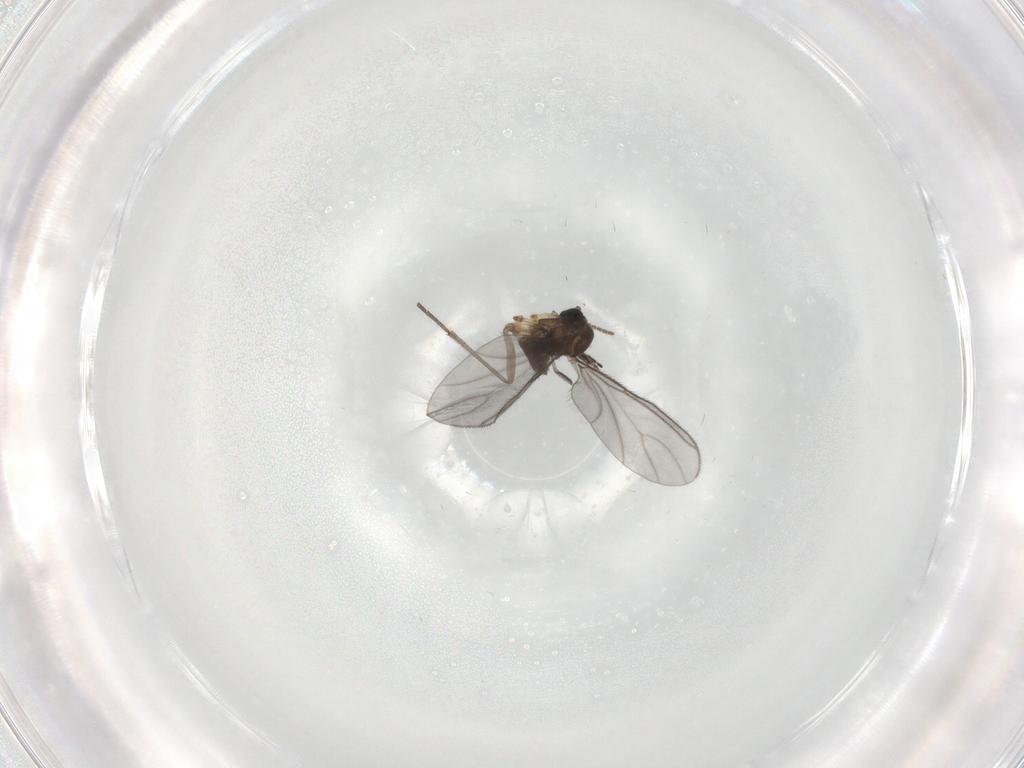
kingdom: Animalia
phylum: Arthropoda
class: Insecta
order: Diptera
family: Sciaridae
